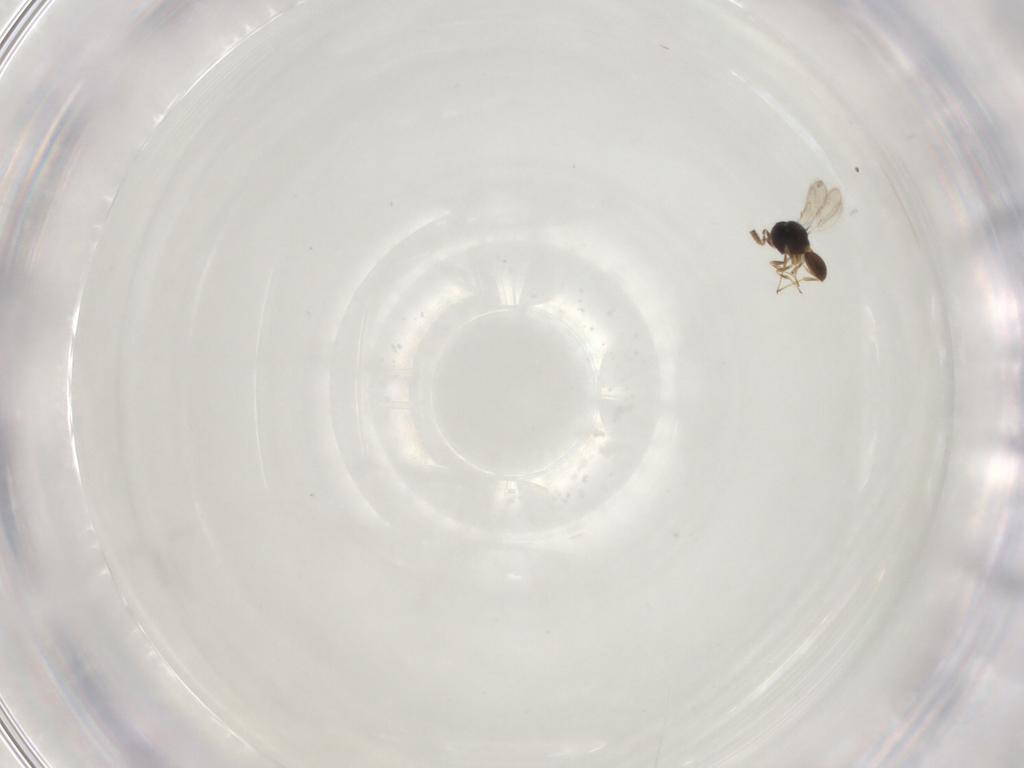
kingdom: Animalia
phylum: Arthropoda
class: Insecta
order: Hymenoptera
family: Scelionidae
